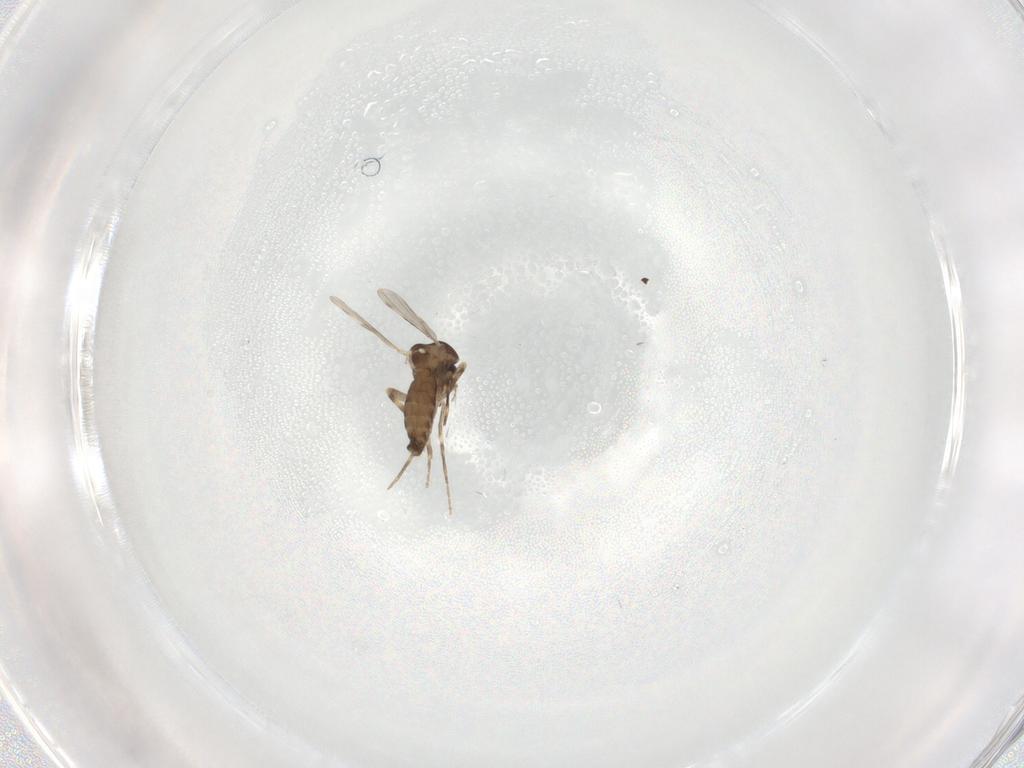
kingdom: Animalia
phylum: Arthropoda
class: Insecta
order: Diptera
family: Ceratopogonidae
